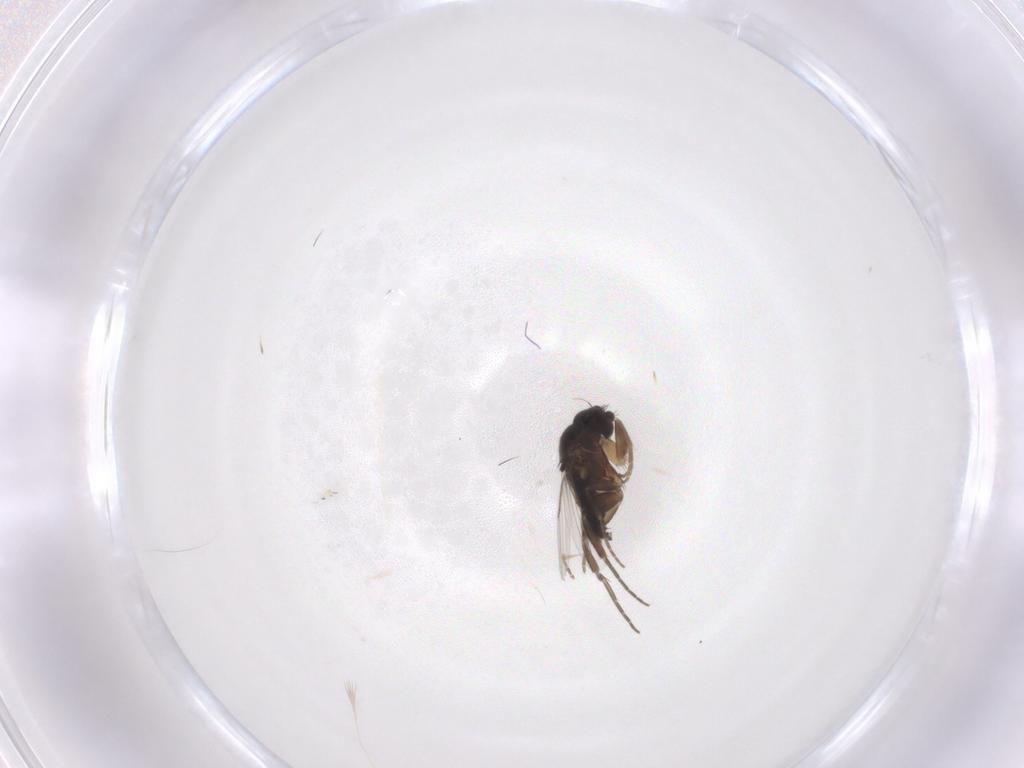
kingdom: Animalia
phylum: Arthropoda
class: Insecta
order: Diptera
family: Phoridae
